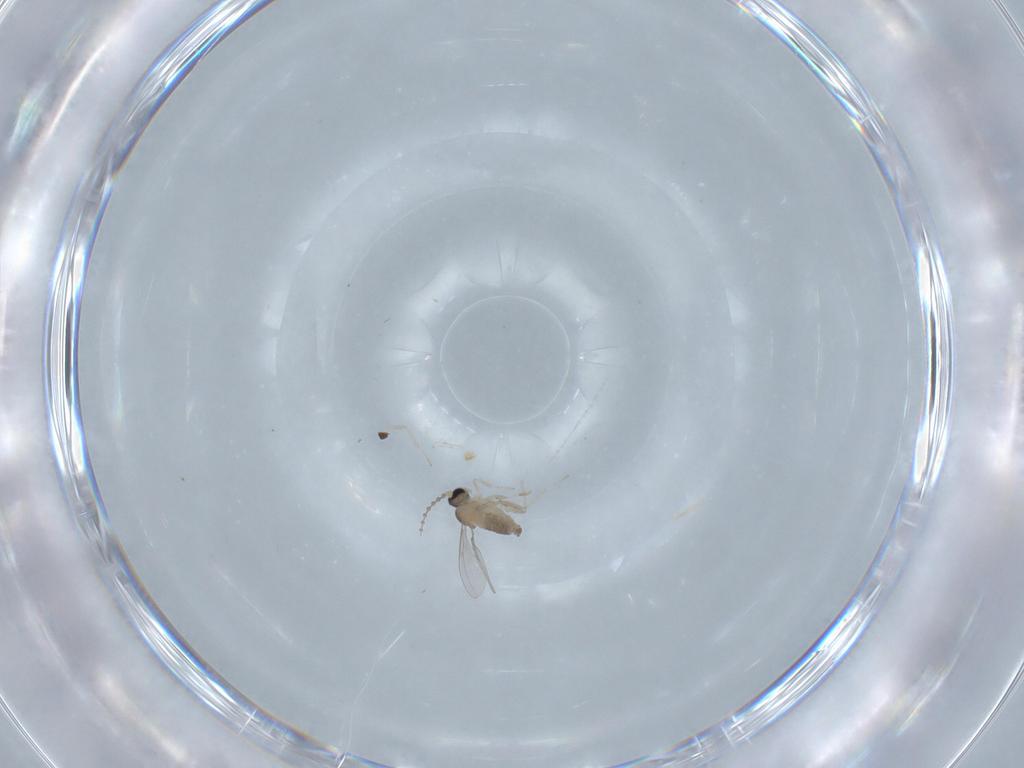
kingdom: Animalia
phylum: Arthropoda
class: Insecta
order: Diptera
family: Cecidomyiidae
